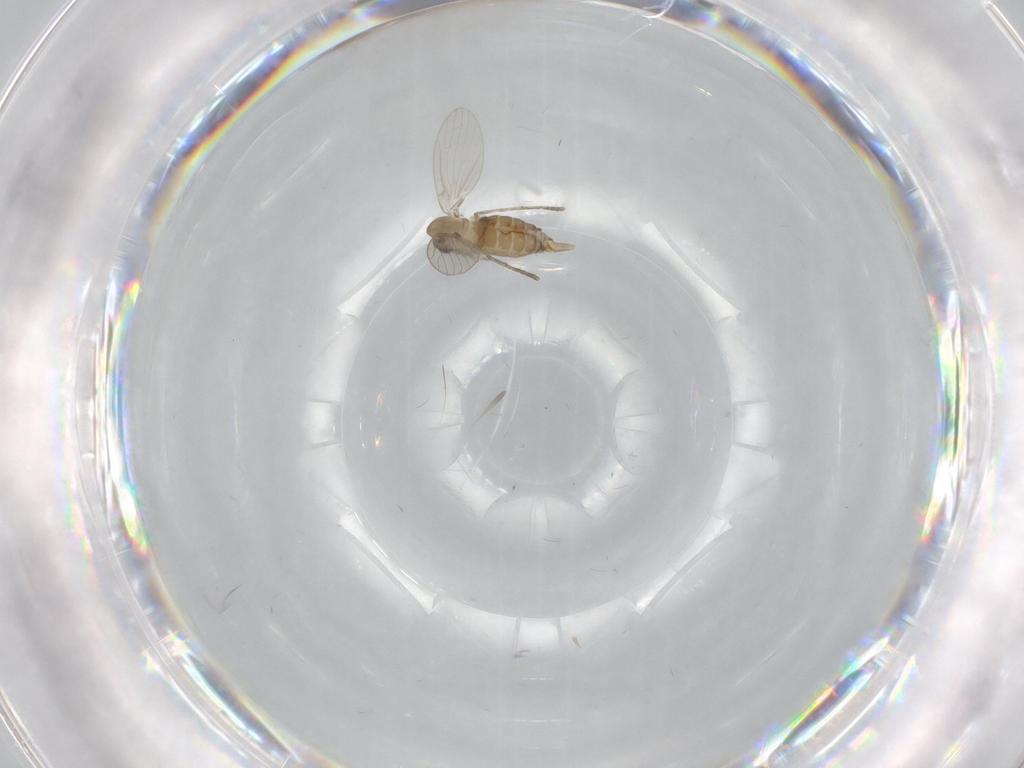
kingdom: Animalia
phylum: Arthropoda
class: Insecta
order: Diptera
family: Psychodidae
